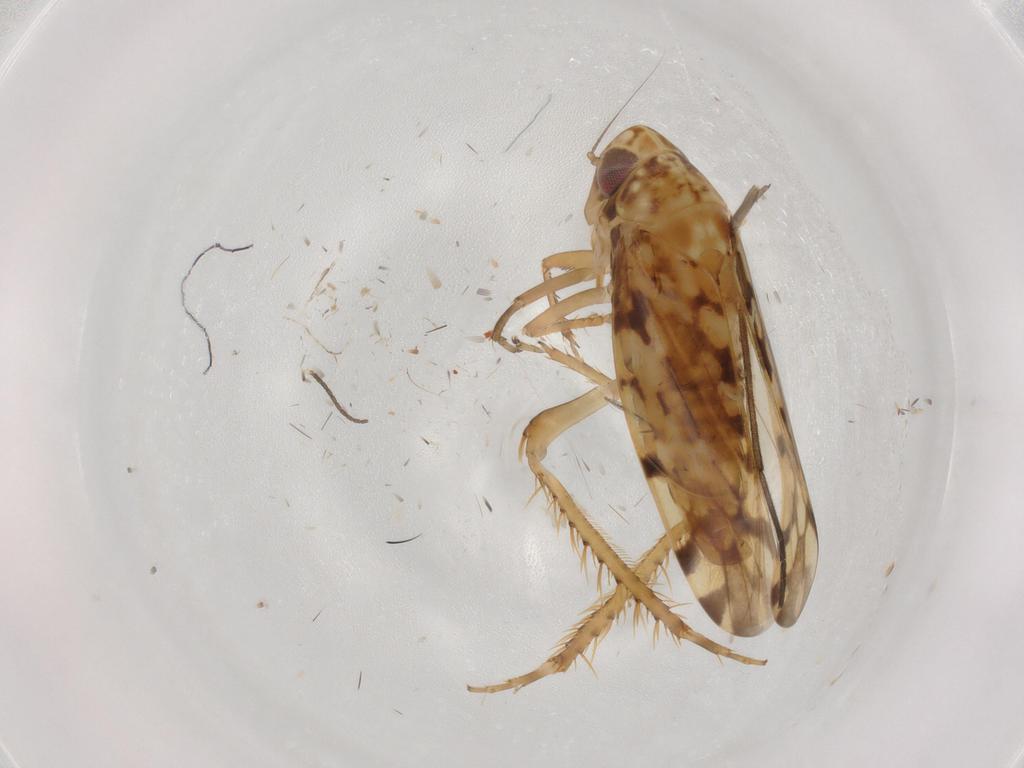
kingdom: Animalia
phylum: Arthropoda
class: Insecta
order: Hemiptera
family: Cicadellidae
